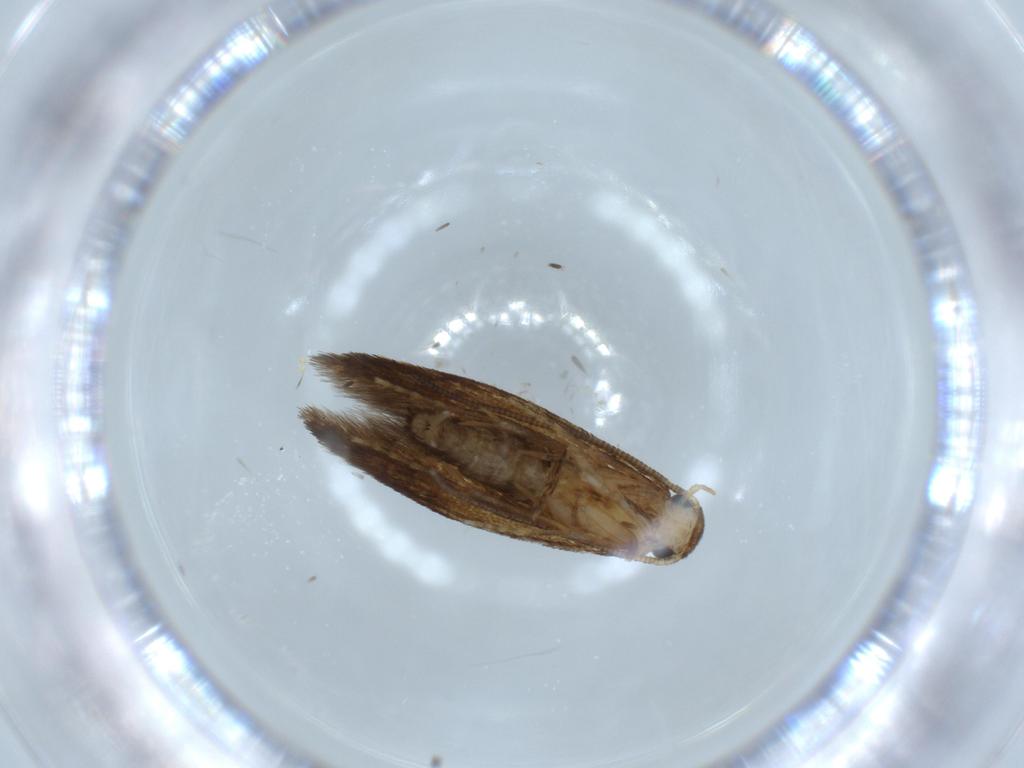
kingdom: Animalia
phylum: Arthropoda
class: Insecta
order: Lepidoptera
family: Tineidae
